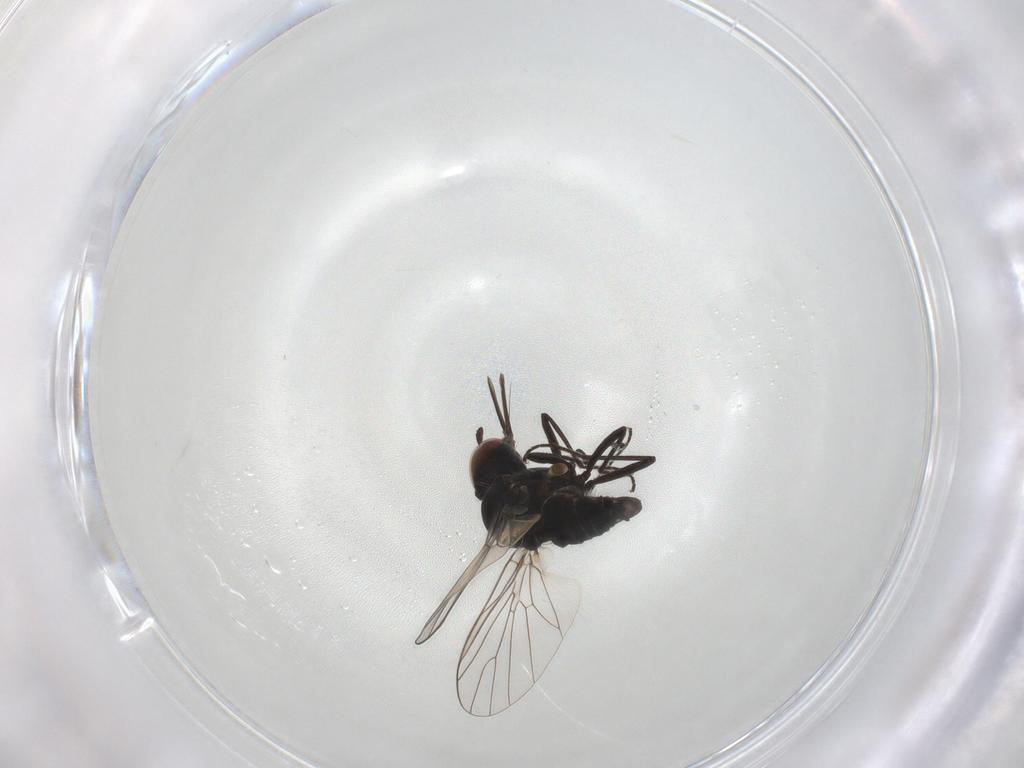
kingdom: Animalia
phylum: Arthropoda
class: Insecta
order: Diptera
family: Bombyliidae
